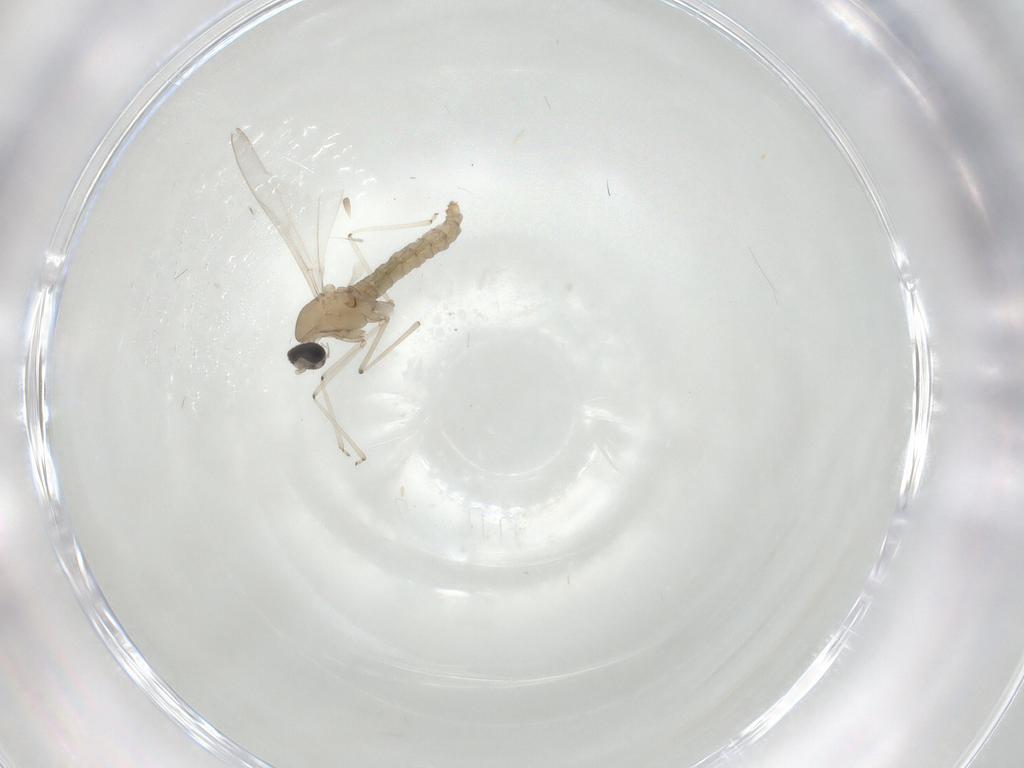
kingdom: Animalia
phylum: Arthropoda
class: Insecta
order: Diptera
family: Cecidomyiidae
